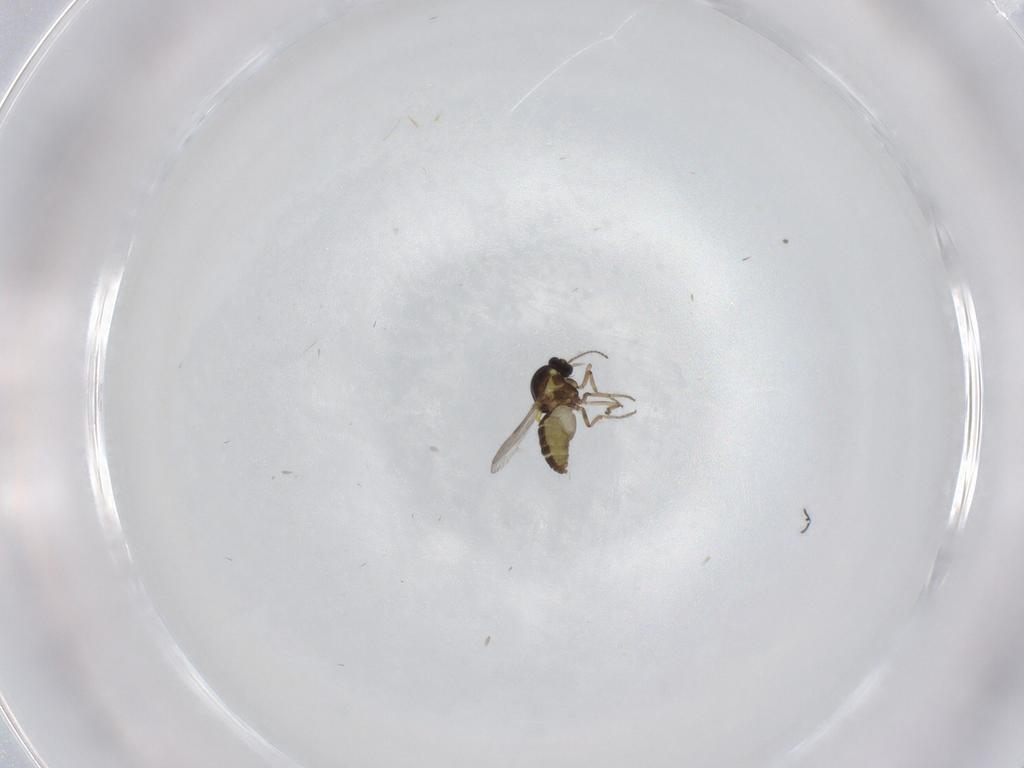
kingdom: Animalia
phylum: Arthropoda
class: Insecta
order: Diptera
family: Ceratopogonidae
